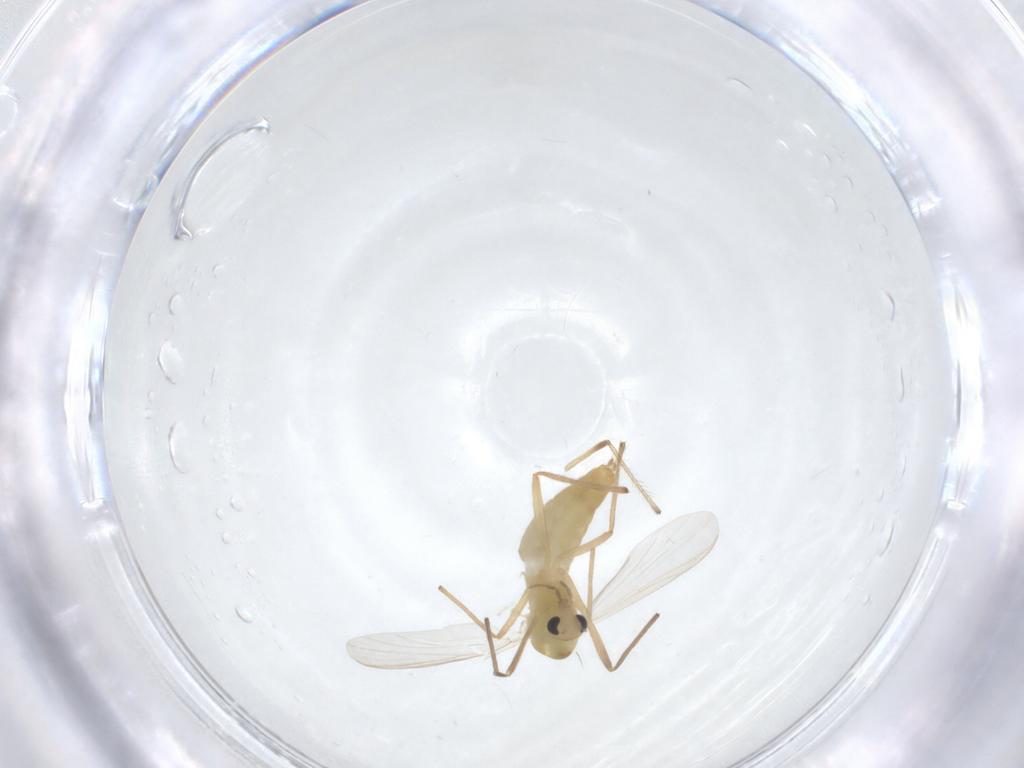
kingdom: Animalia
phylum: Arthropoda
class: Insecta
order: Diptera
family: Chironomidae
